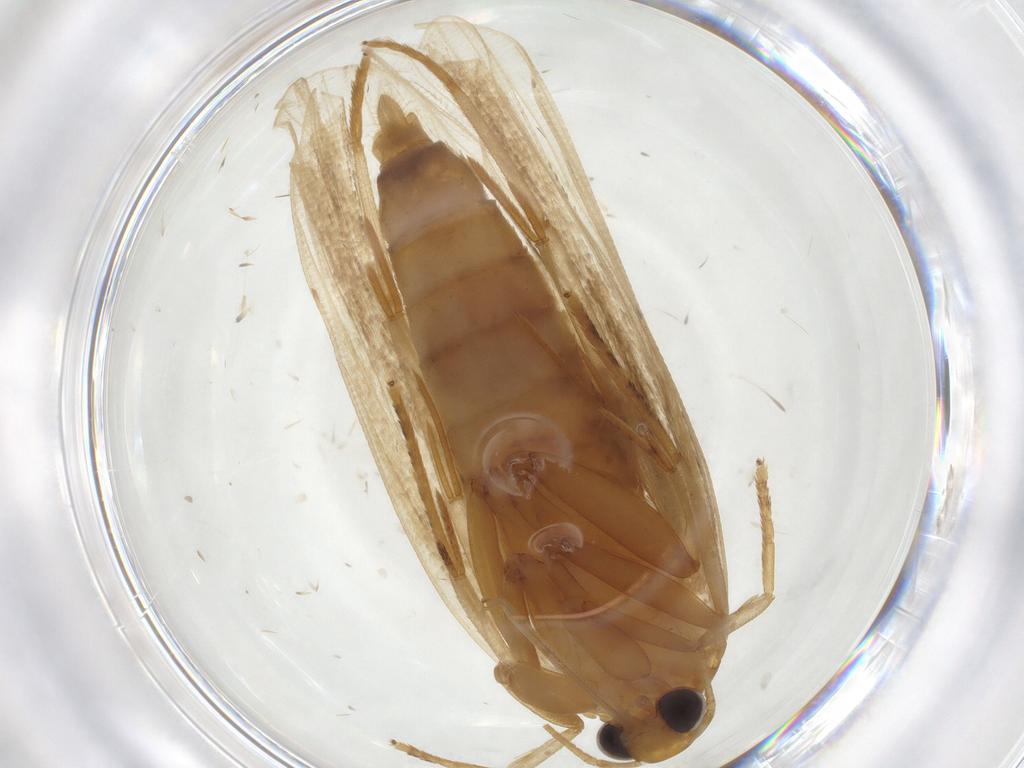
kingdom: Animalia
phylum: Arthropoda
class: Insecta
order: Lepidoptera
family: Gelechiidae
